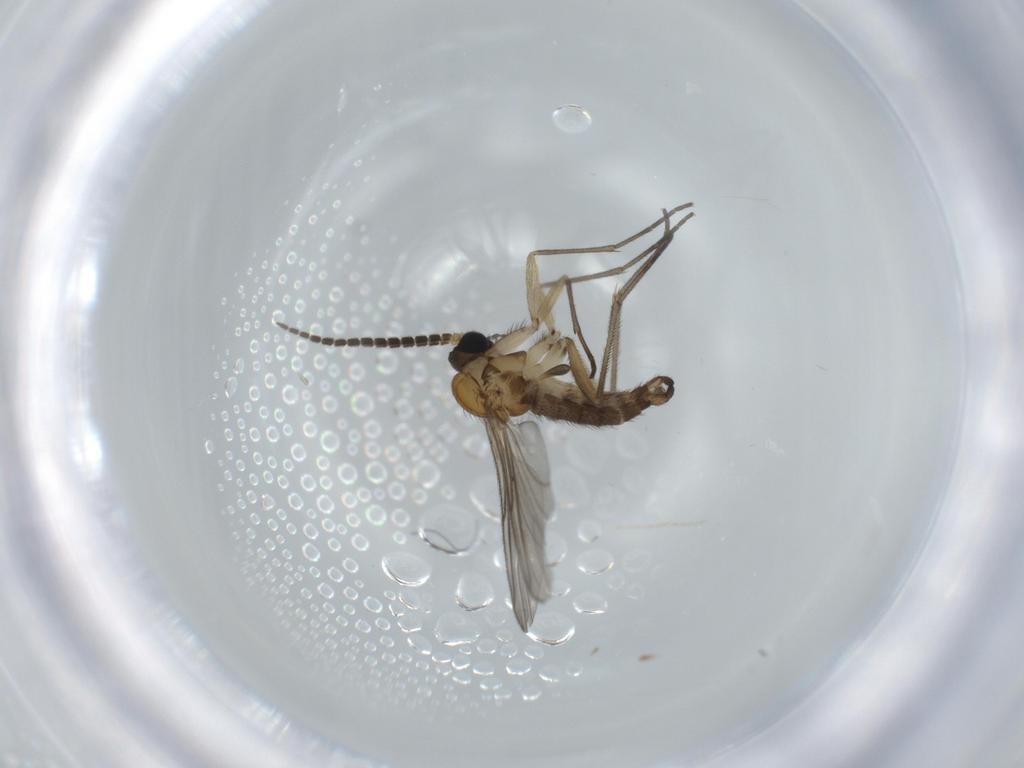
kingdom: Animalia
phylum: Arthropoda
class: Insecta
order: Diptera
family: Sciaridae
